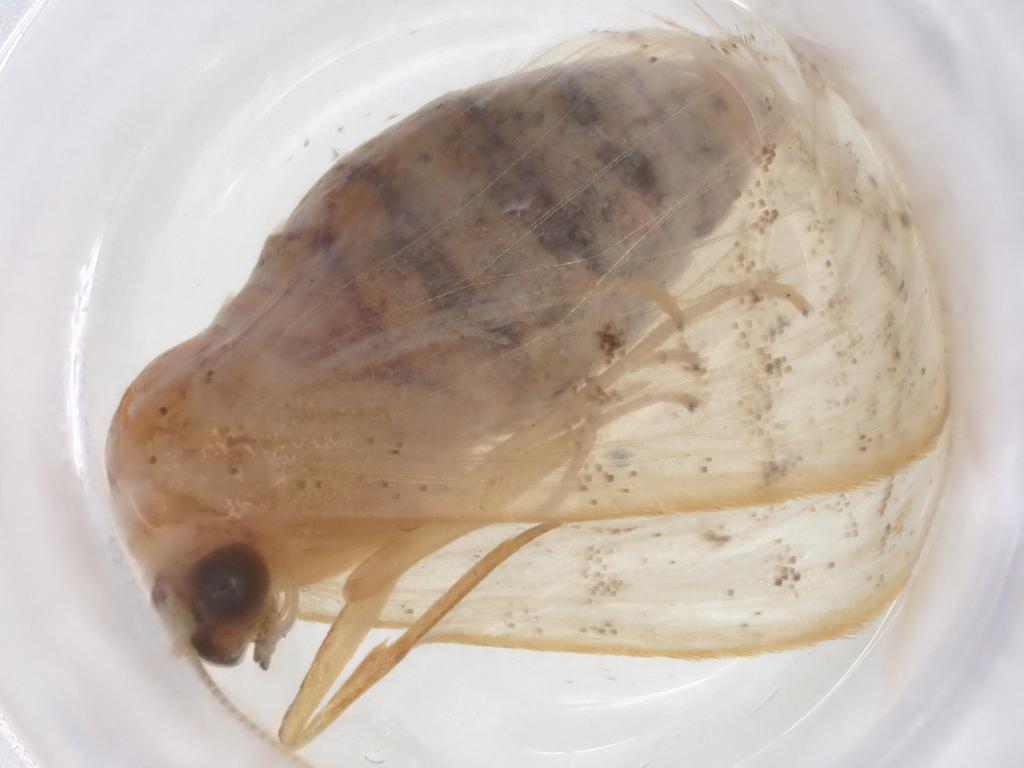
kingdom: Animalia
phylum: Arthropoda
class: Insecta
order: Lepidoptera
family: Geometridae
